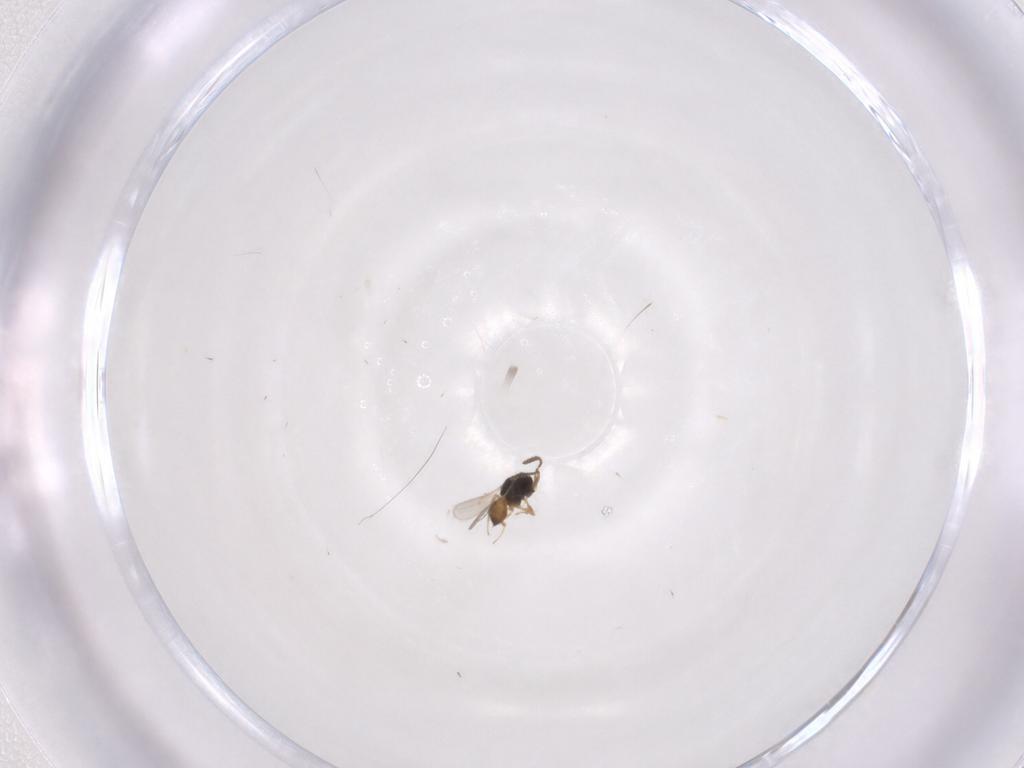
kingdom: Animalia
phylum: Arthropoda
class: Insecta
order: Hymenoptera
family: Scelionidae
